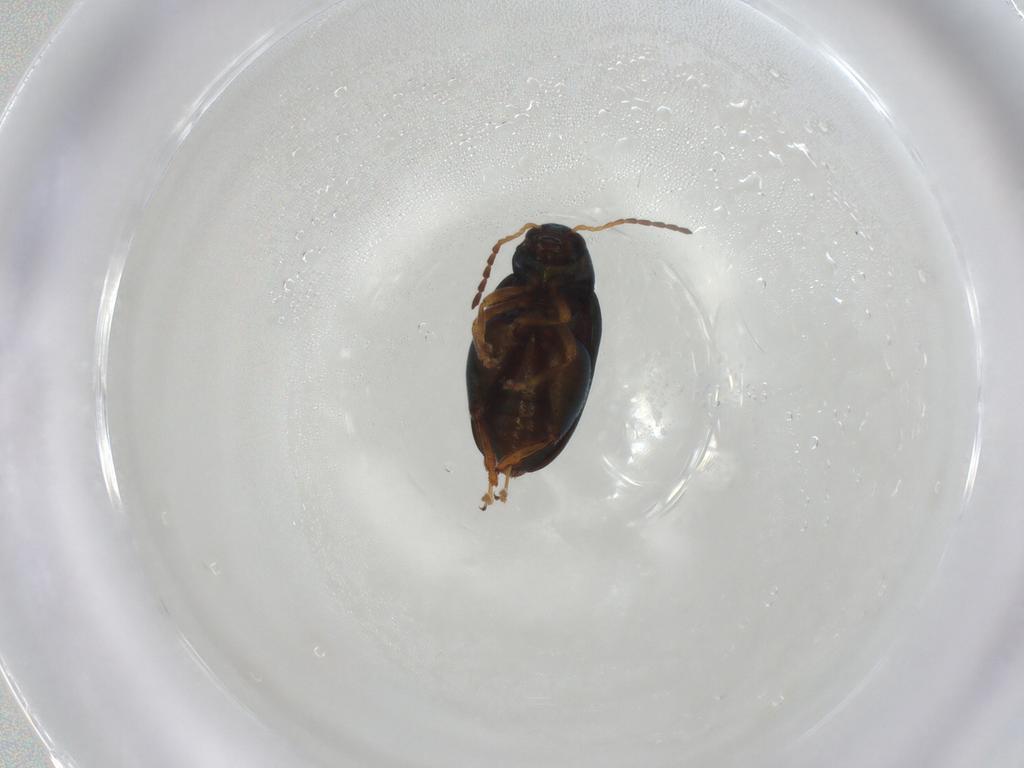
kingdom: Animalia
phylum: Arthropoda
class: Insecta
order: Coleoptera
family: Chrysomelidae
